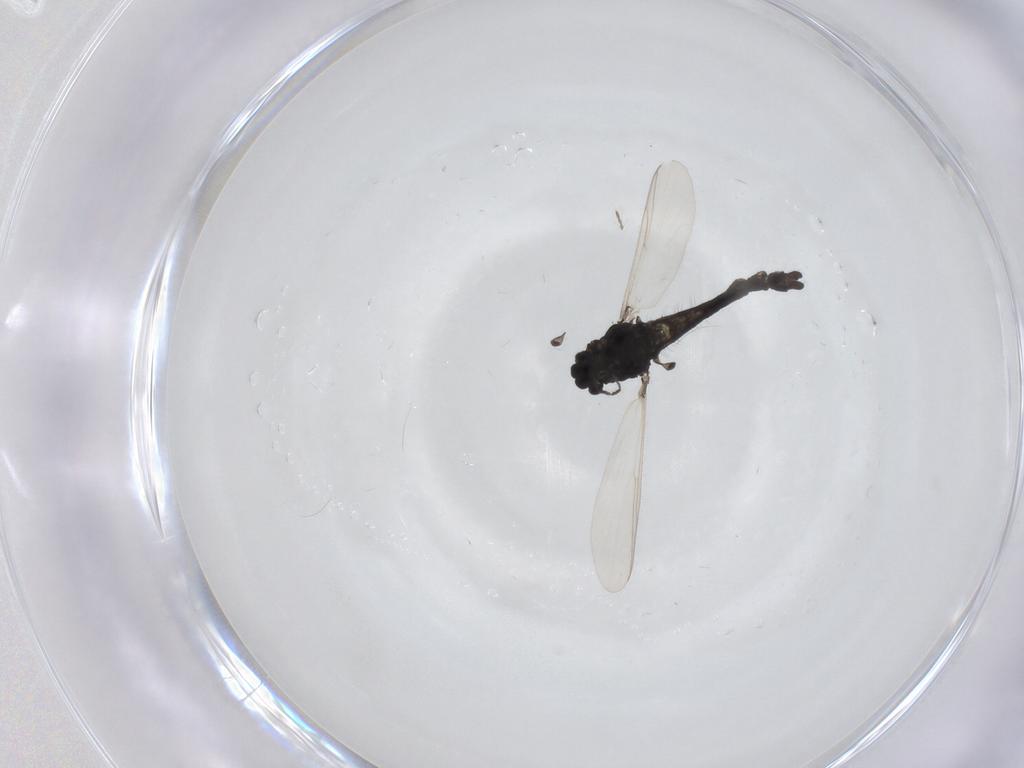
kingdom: Animalia
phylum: Arthropoda
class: Insecta
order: Diptera
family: Chironomidae
